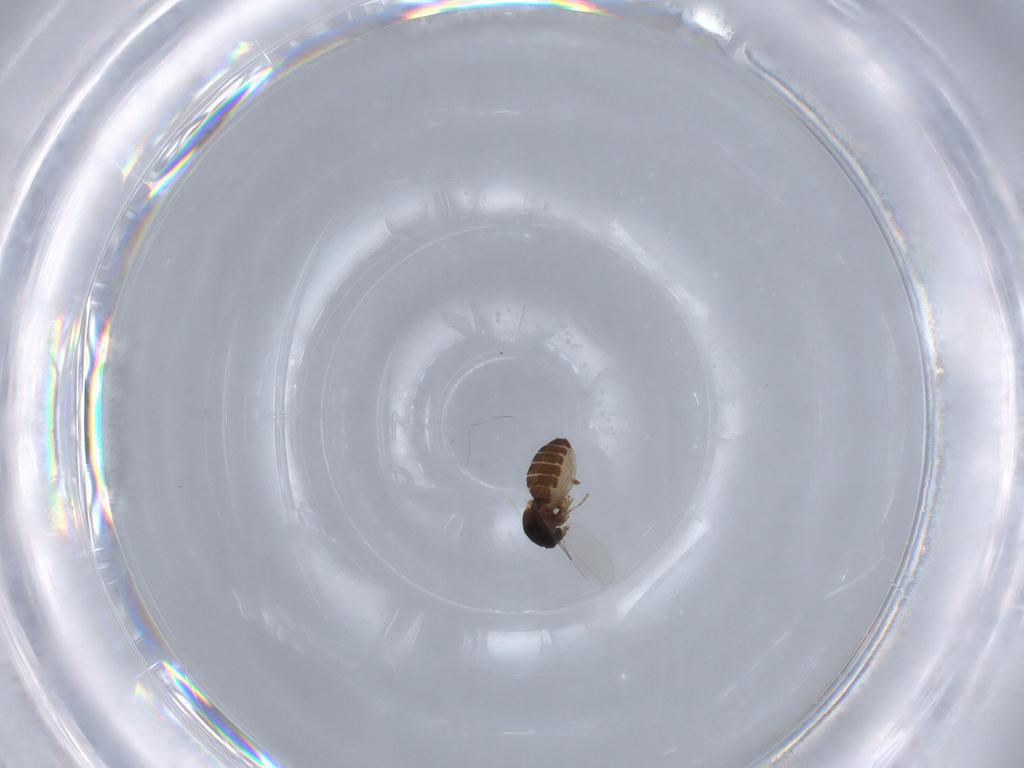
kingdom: Animalia
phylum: Arthropoda
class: Insecta
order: Diptera
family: Ceratopogonidae
